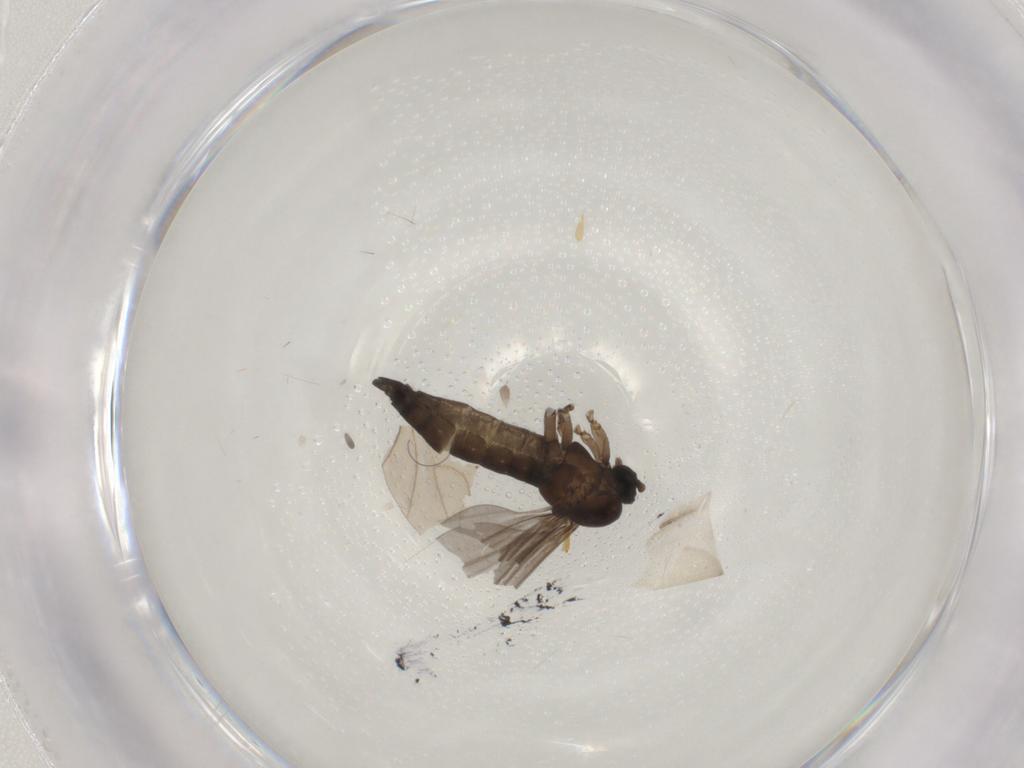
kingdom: Animalia
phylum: Arthropoda
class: Insecta
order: Diptera
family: Sciaridae
